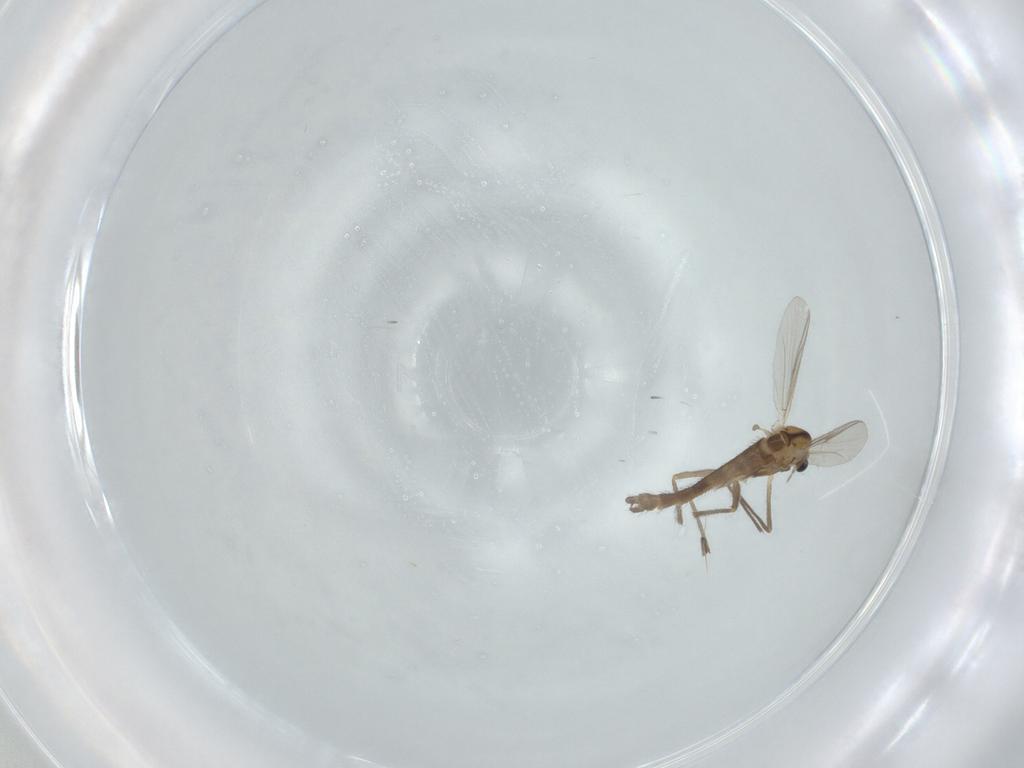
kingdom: Animalia
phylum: Arthropoda
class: Insecta
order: Diptera
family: Chironomidae
